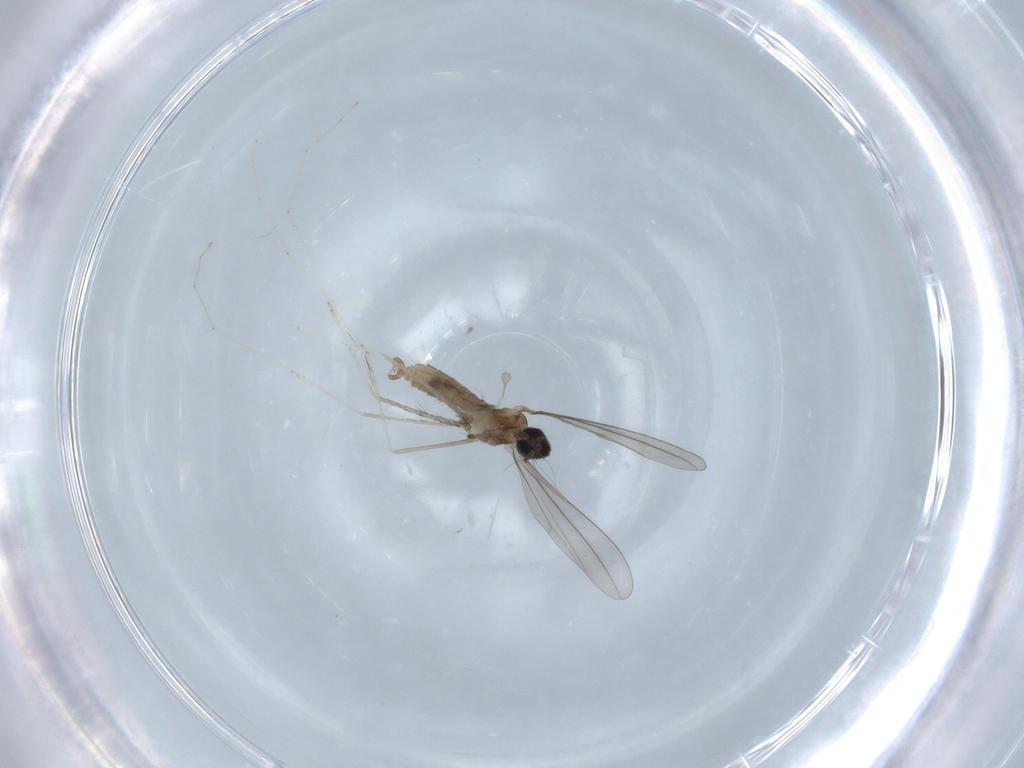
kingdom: Animalia
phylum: Arthropoda
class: Insecta
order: Diptera
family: Cecidomyiidae
